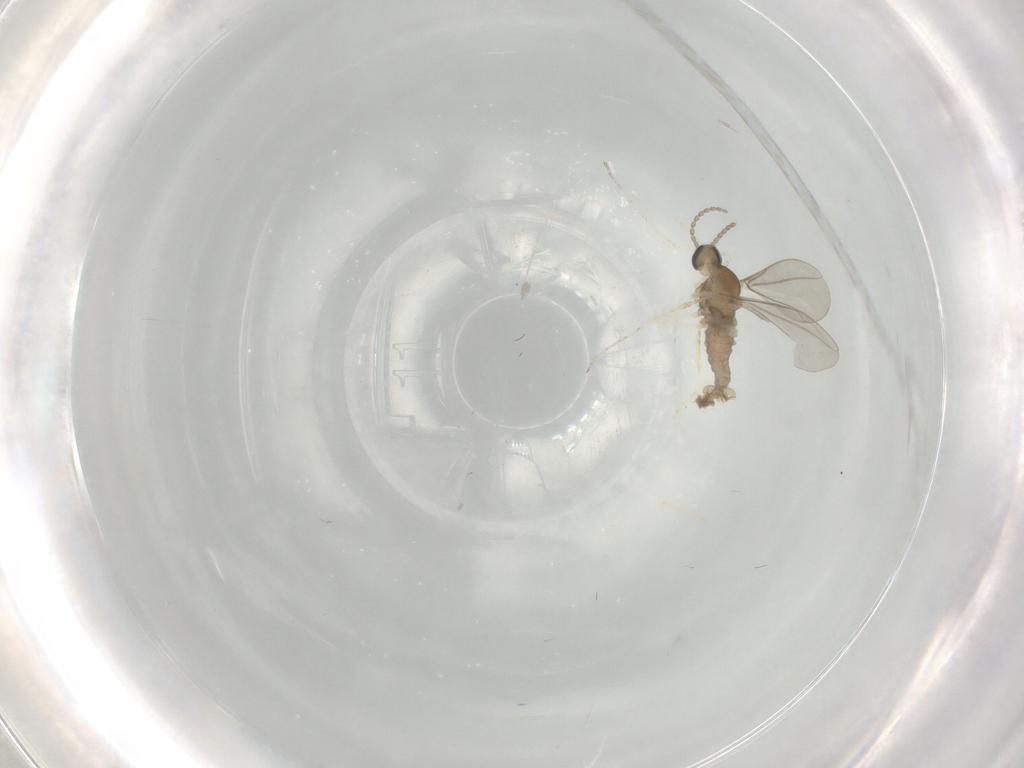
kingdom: Animalia
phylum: Arthropoda
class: Insecta
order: Diptera
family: Cecidomyiidae
